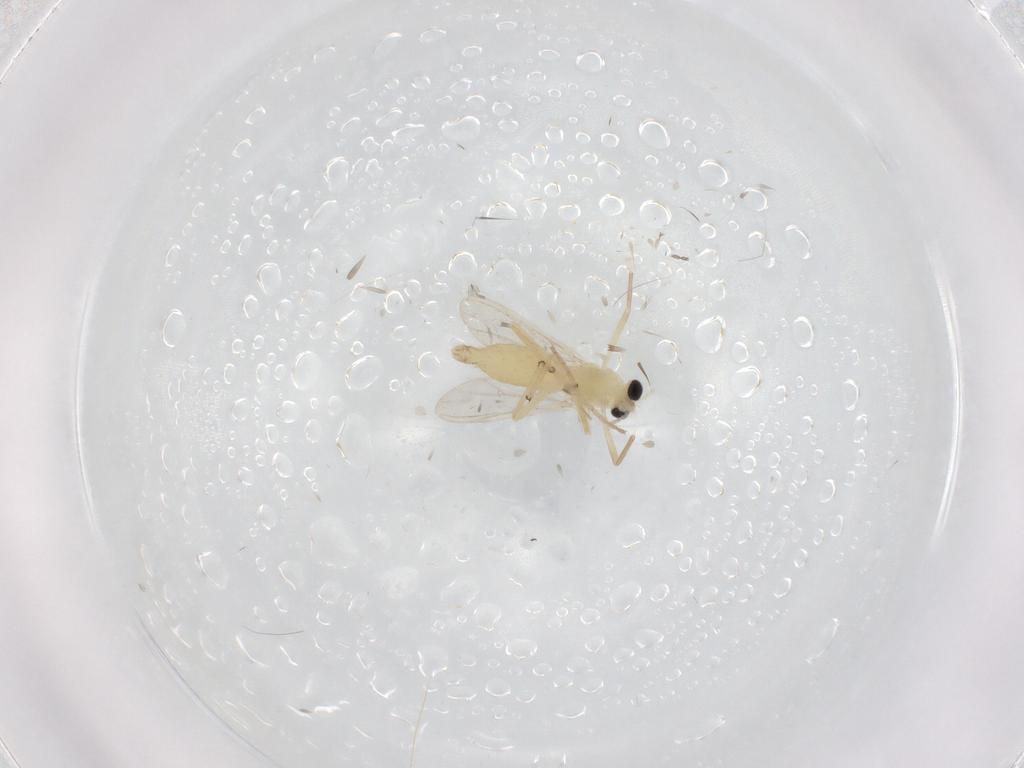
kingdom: Animalia
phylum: Arthropoda
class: Insecta
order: Diptera
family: Chironomidae
